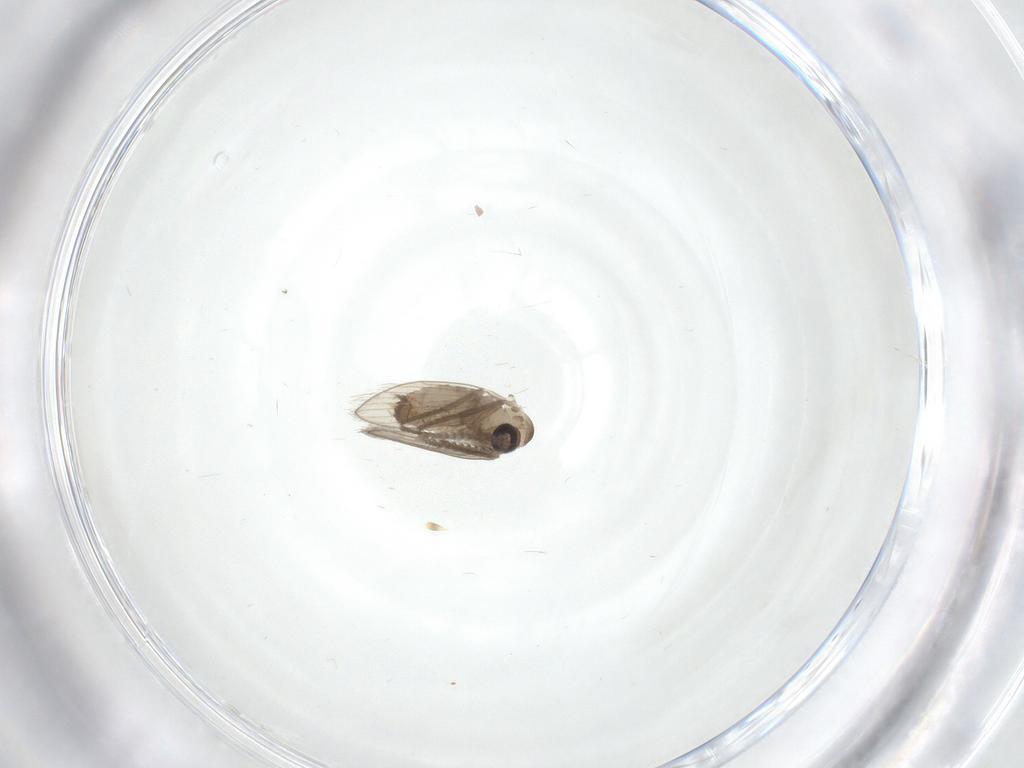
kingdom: Animalia
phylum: Arthropoda
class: Insecta
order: Diptera
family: Psychodidae
